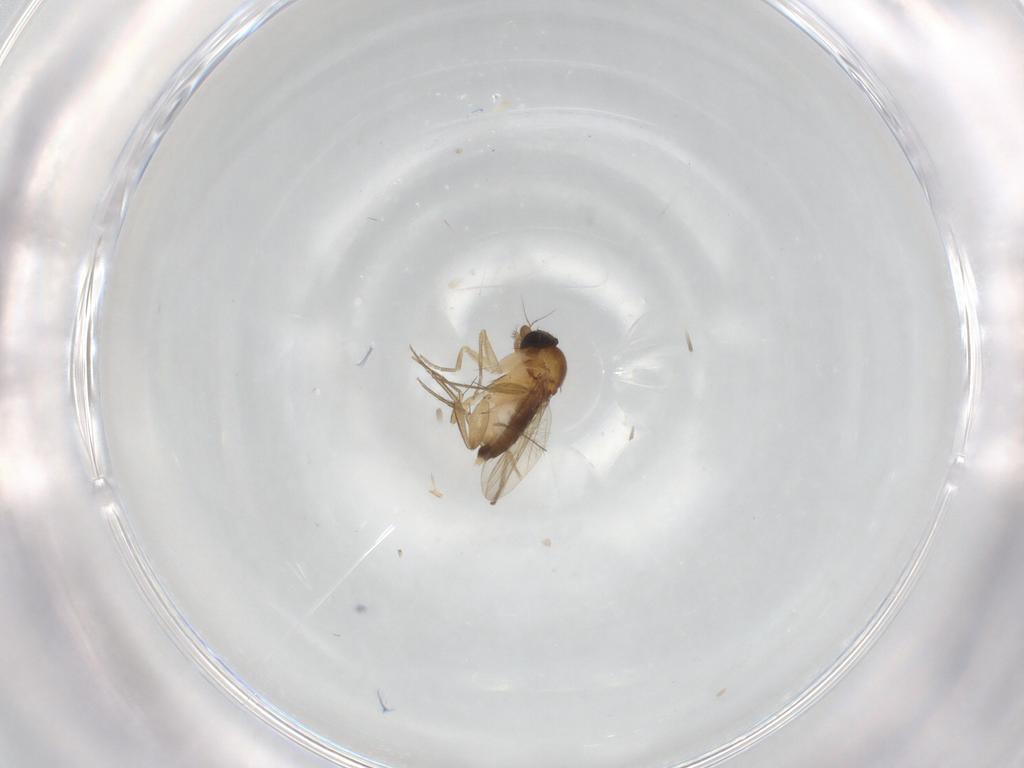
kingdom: Animalia
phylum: Arthropoda
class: Insecta
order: Diptera
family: Phoridae
